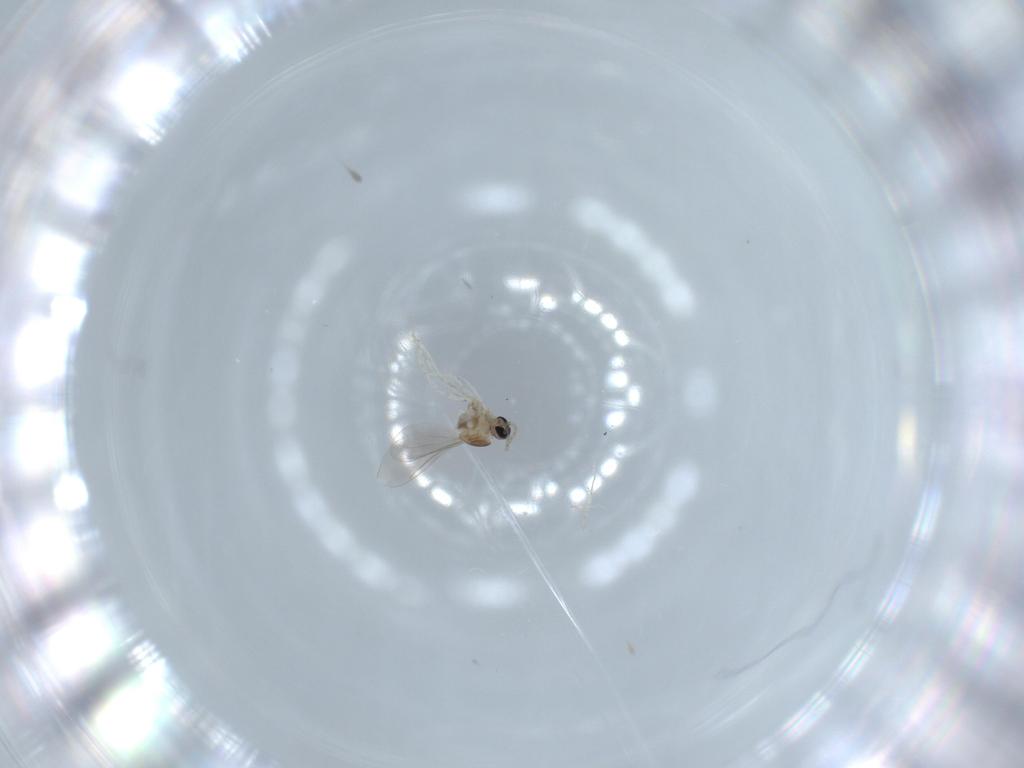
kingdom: Animalia
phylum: Arthropoda
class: Insecta
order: Diptera
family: Cecidomyiidae
